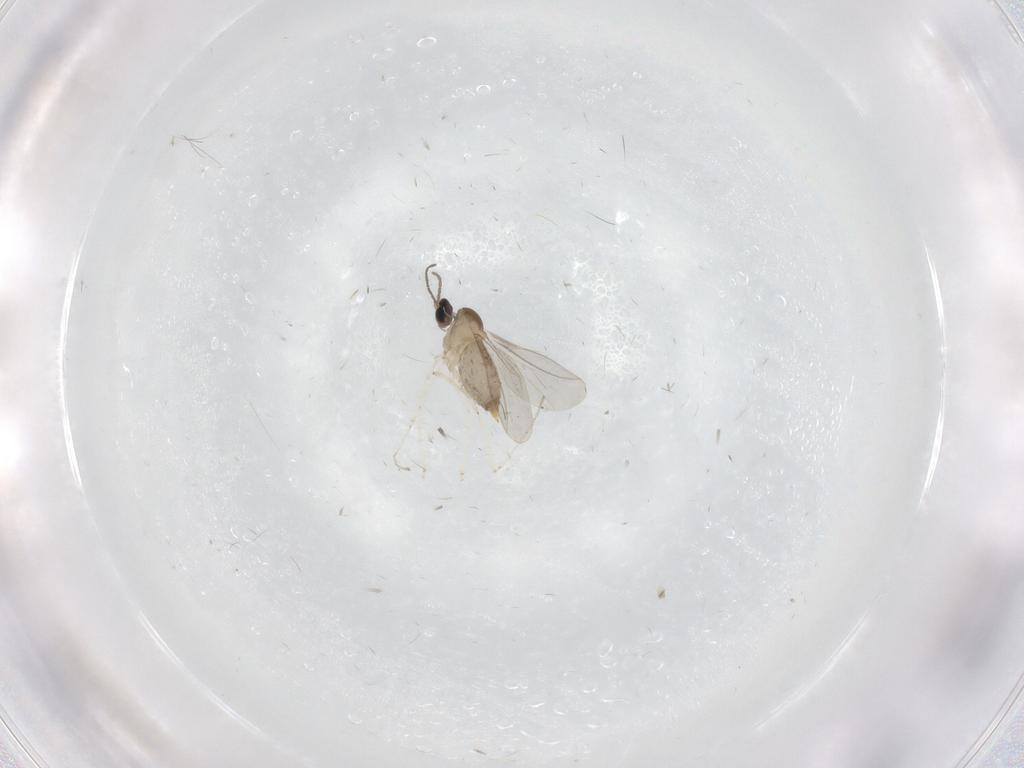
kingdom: Animalia
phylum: Arthropoda
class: Insecta
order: Diptera
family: Cecidomyiidae
